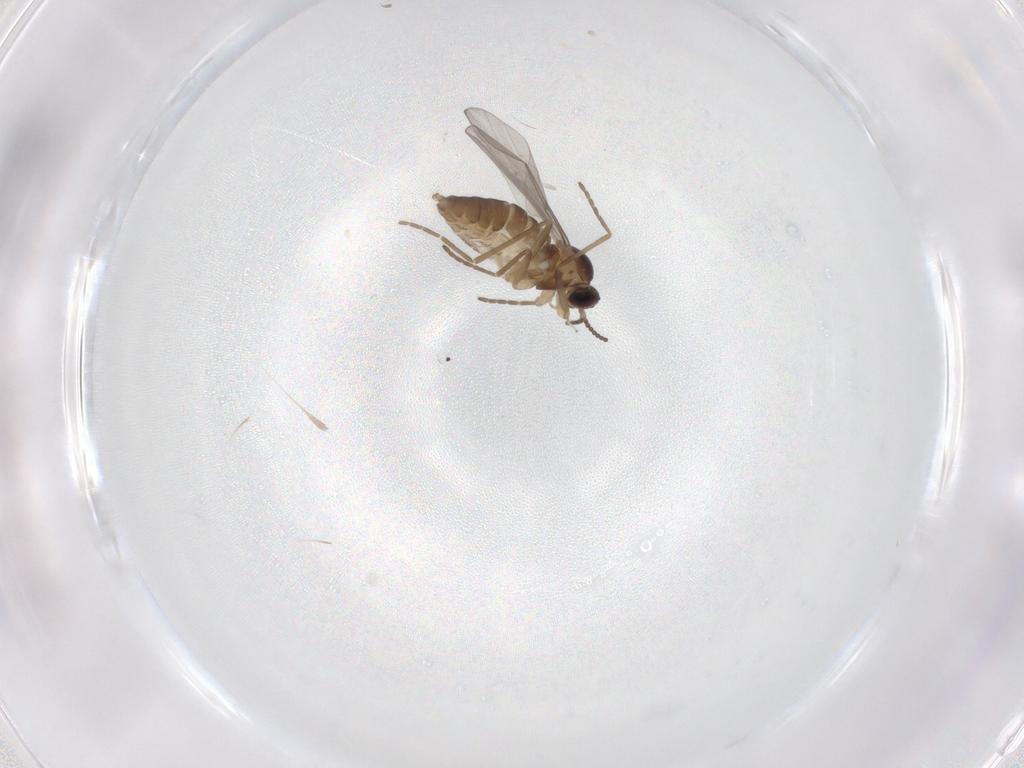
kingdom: Animalia
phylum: Arthropoda
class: Insecta
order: Diptera
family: Cecidomyiidae
